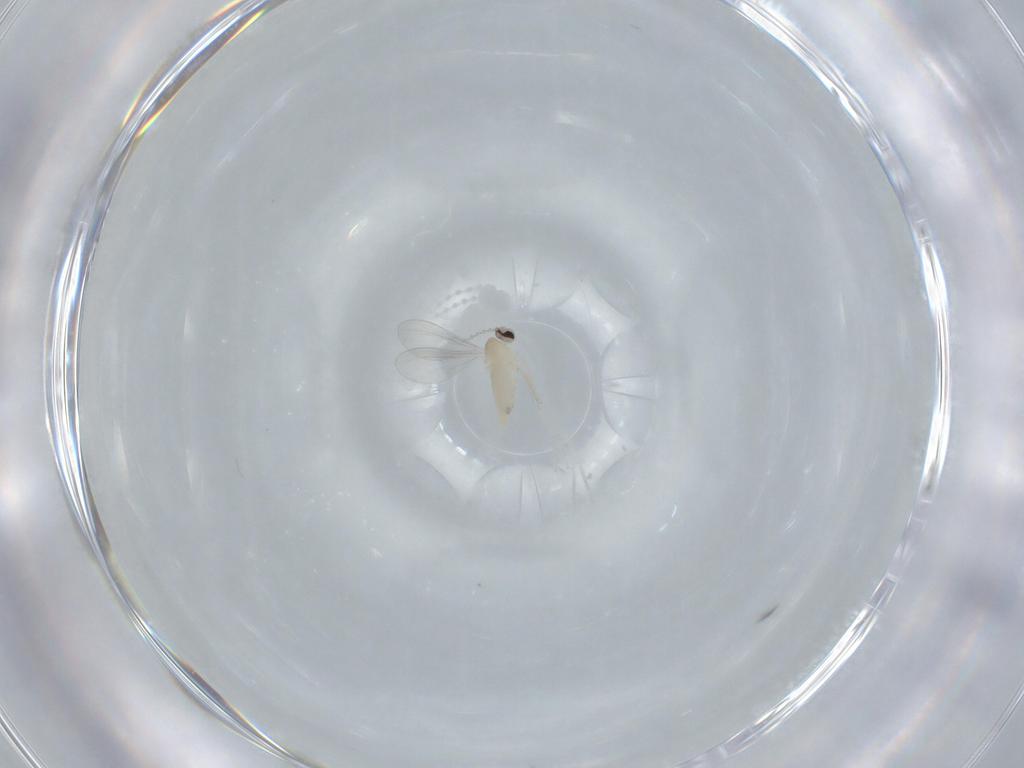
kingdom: Animalia
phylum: Arthropoda
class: Insecta
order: Diptera
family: Cecidomyiidae
